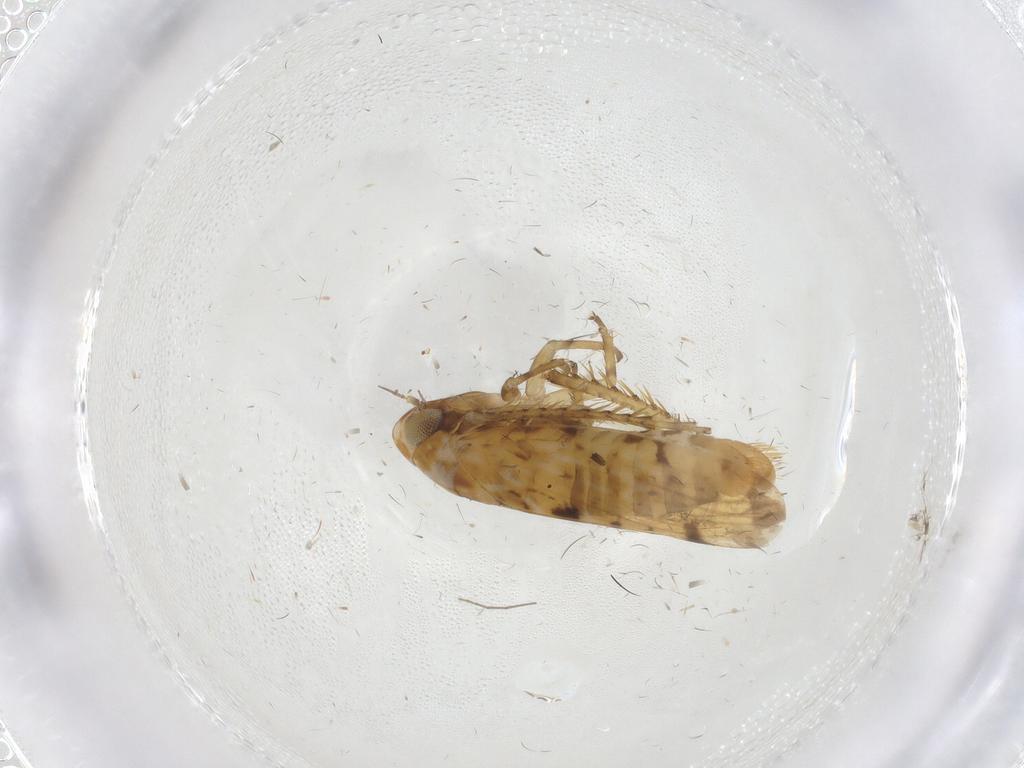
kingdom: Animalia
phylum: Arthropoda
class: Insecta
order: Hemiptera
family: Cicadellidae
